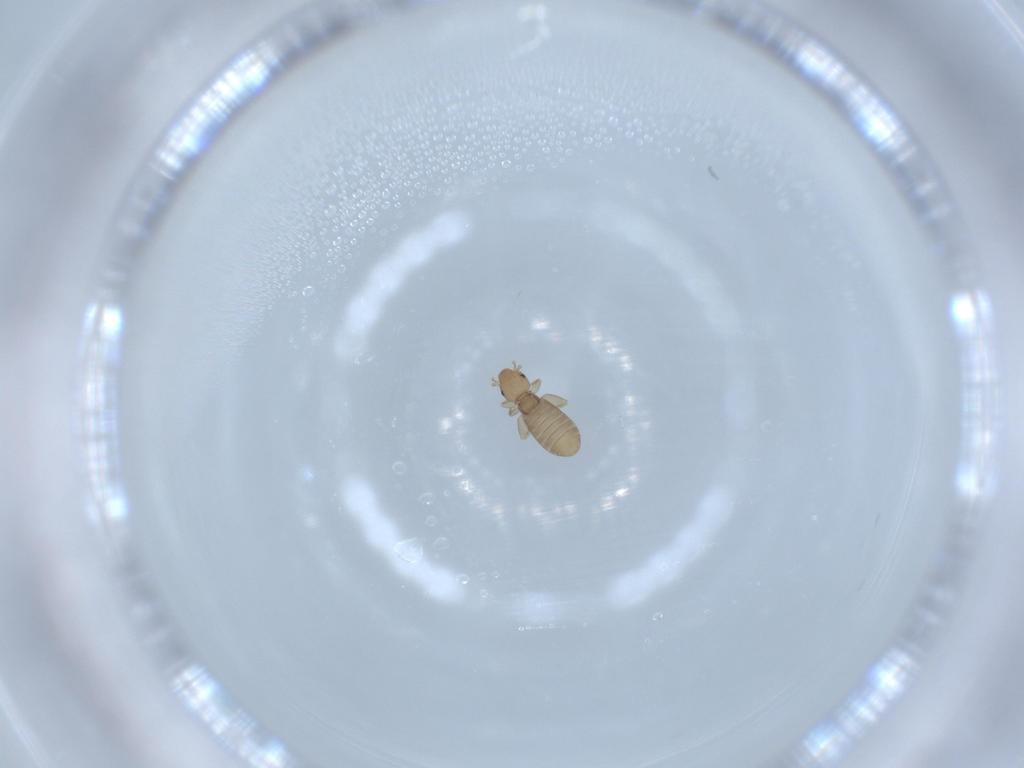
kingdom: Animalia
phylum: Arthropoda
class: Insecta
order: Psocodea
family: Liposcelididae
